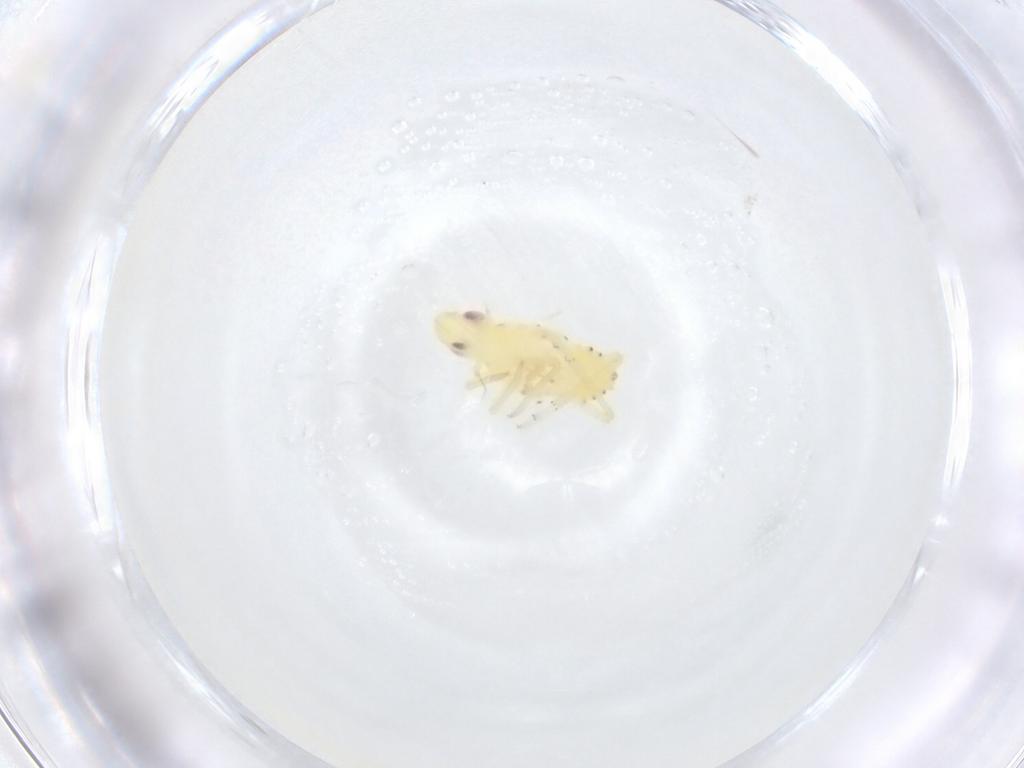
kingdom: Animalia
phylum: Arthropoda
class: Insecta
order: Hemiptera
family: Tropiduchidae
